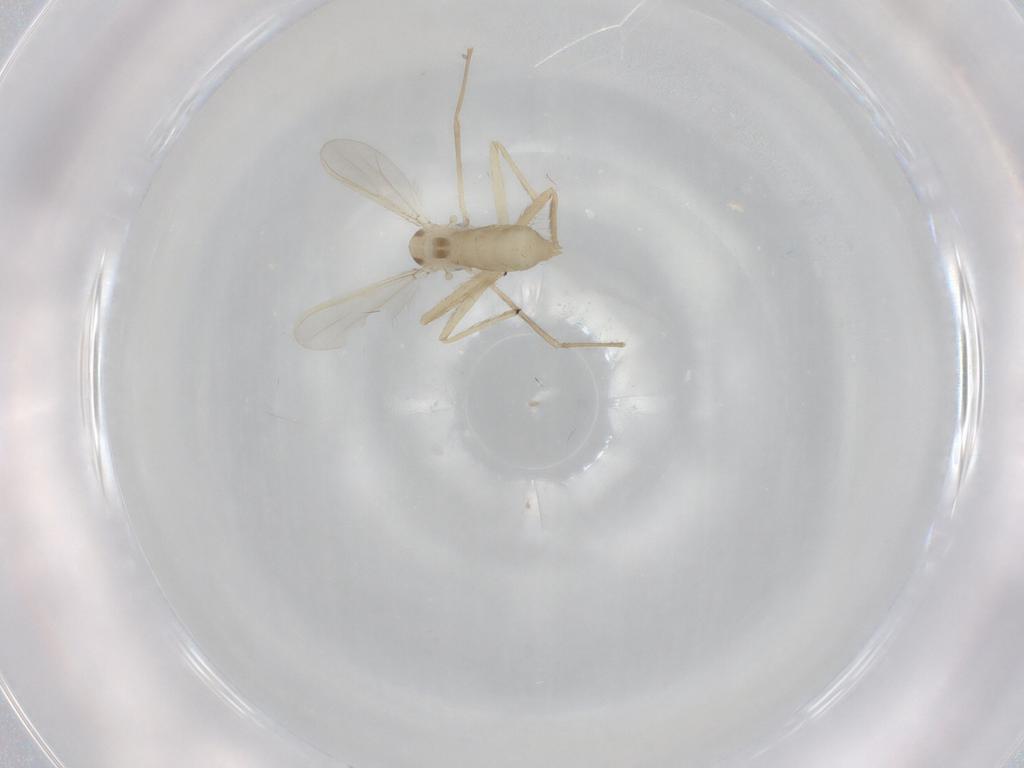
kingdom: Animalia
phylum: Arthropoda
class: Insecta
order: Diptera
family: Chironomidae
